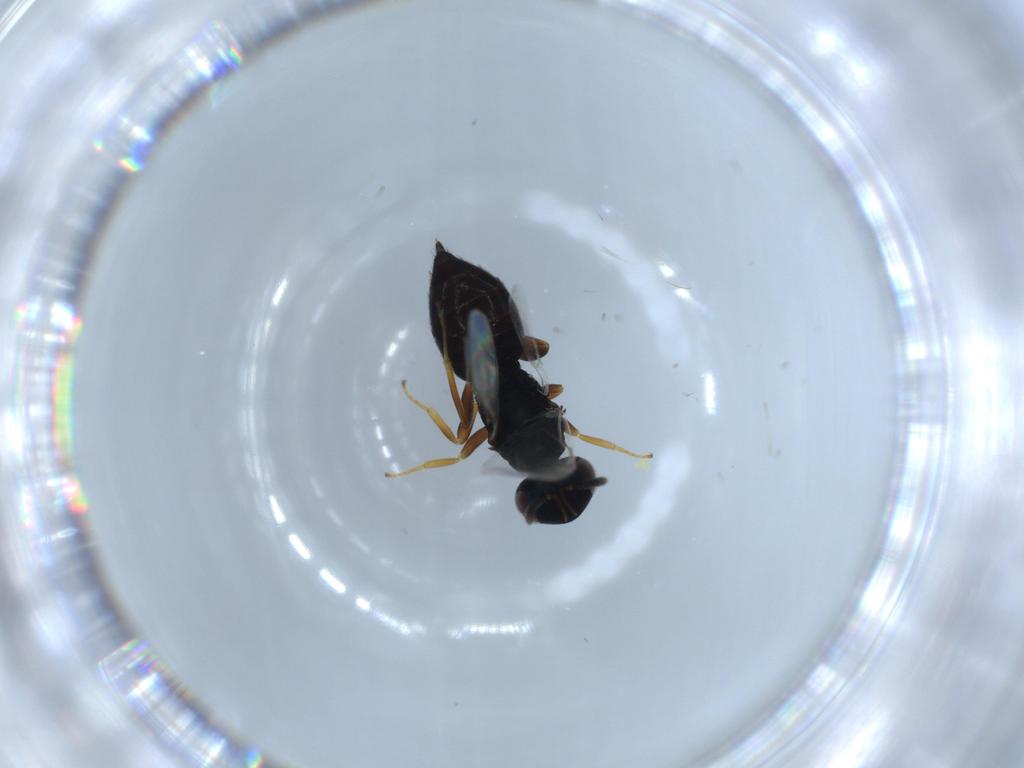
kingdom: Animalia
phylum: Arthropoda
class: Insecta
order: Hymenoptera
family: Pteromalidae
